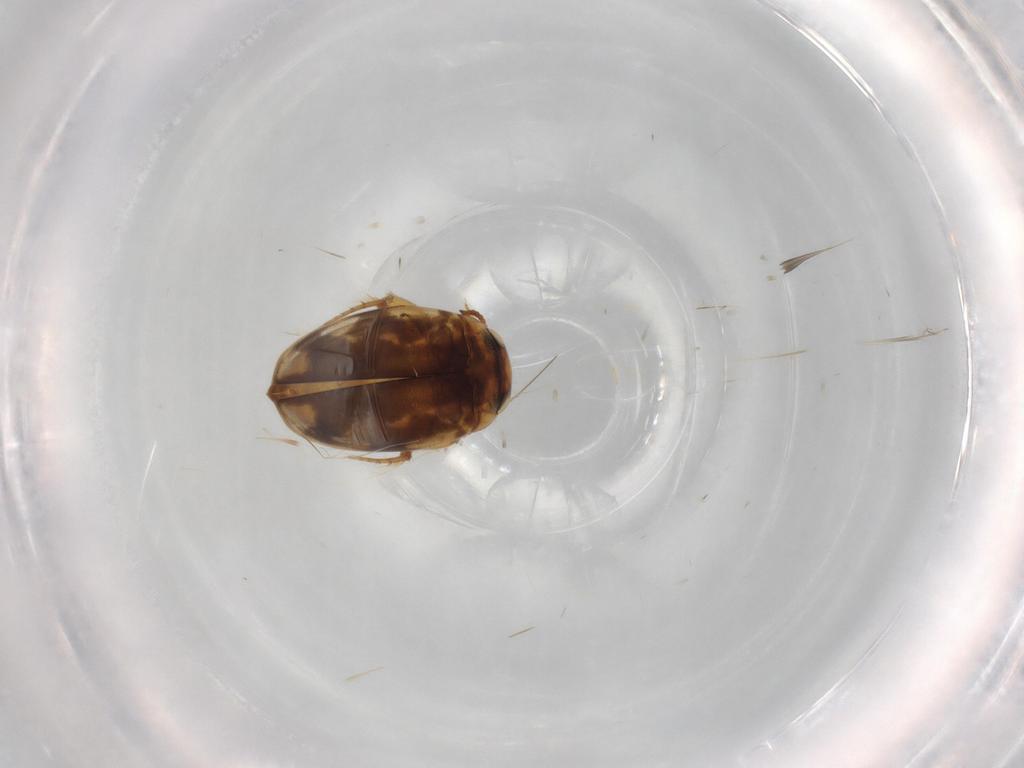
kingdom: Animalia
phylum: Arthropoda
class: Insecta
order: Coleoptera
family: Dytiscidae
